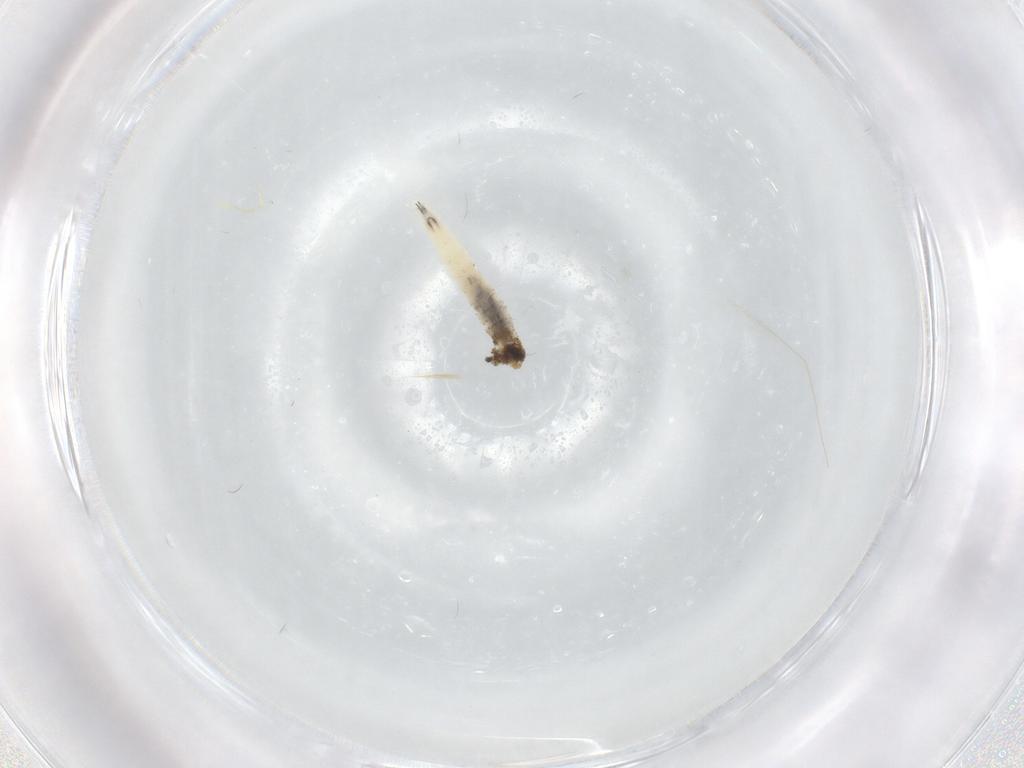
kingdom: Animalia
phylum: Arthropoda
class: Insecta
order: Diptera
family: Drosophilidae
